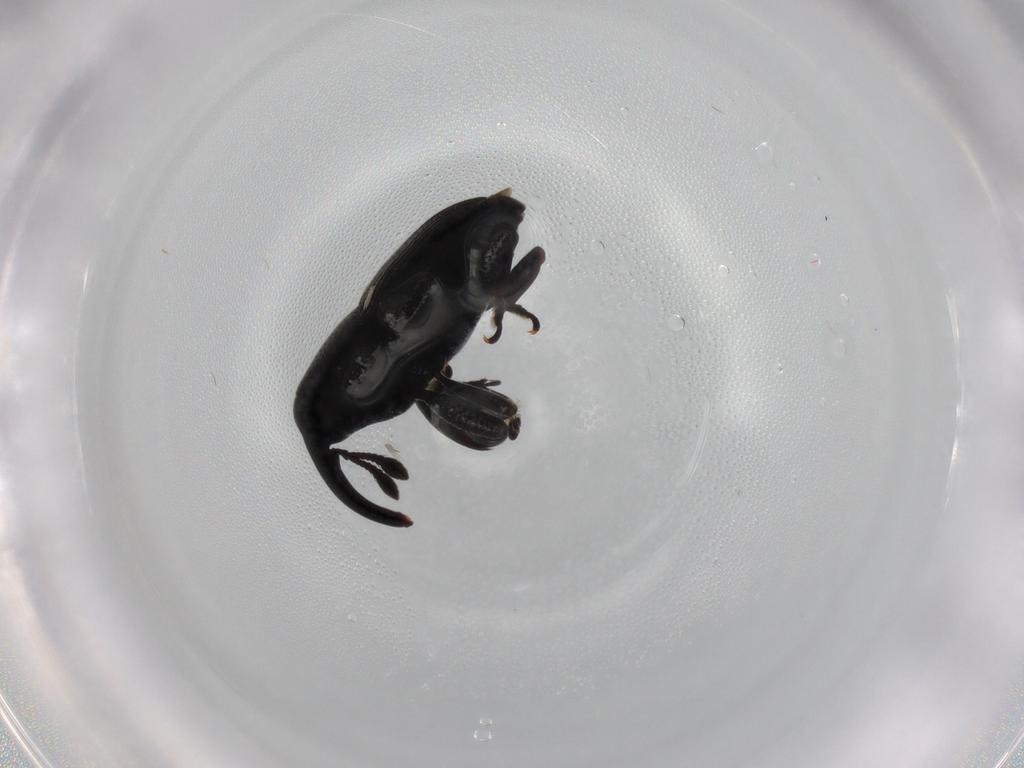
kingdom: Animalia
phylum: Arthropoda
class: Insecta
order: Coleoptera
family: Curculionidae
